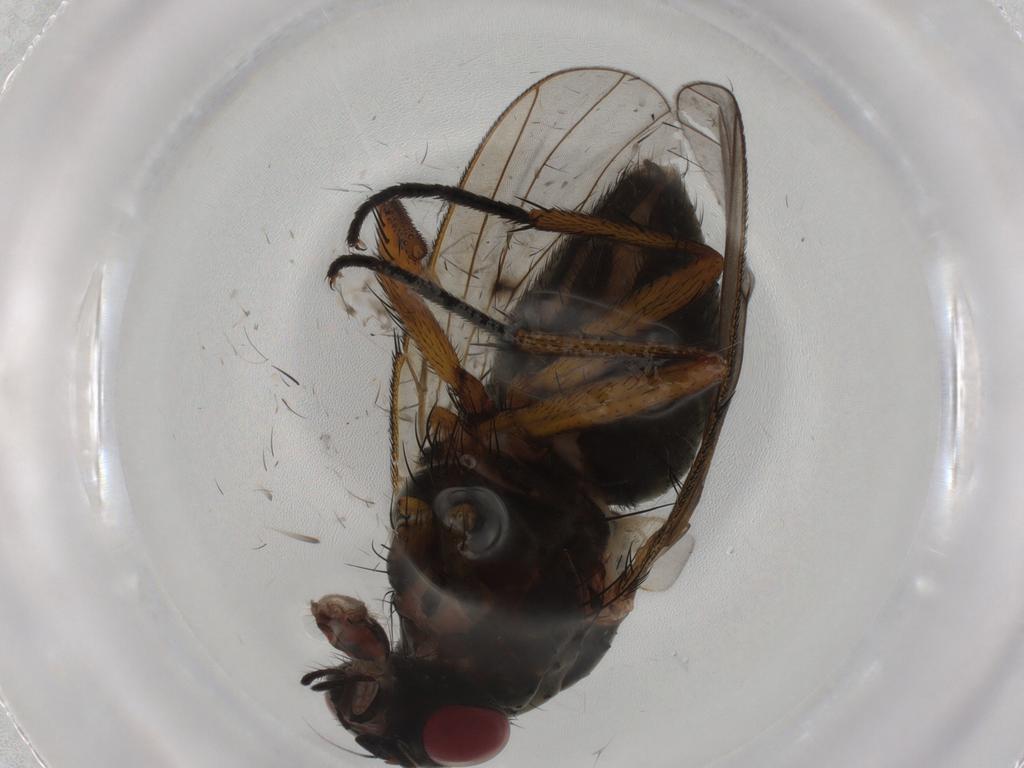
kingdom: Animalia
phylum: Arthropoda
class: Insecta
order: Diptera
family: Muscidae
